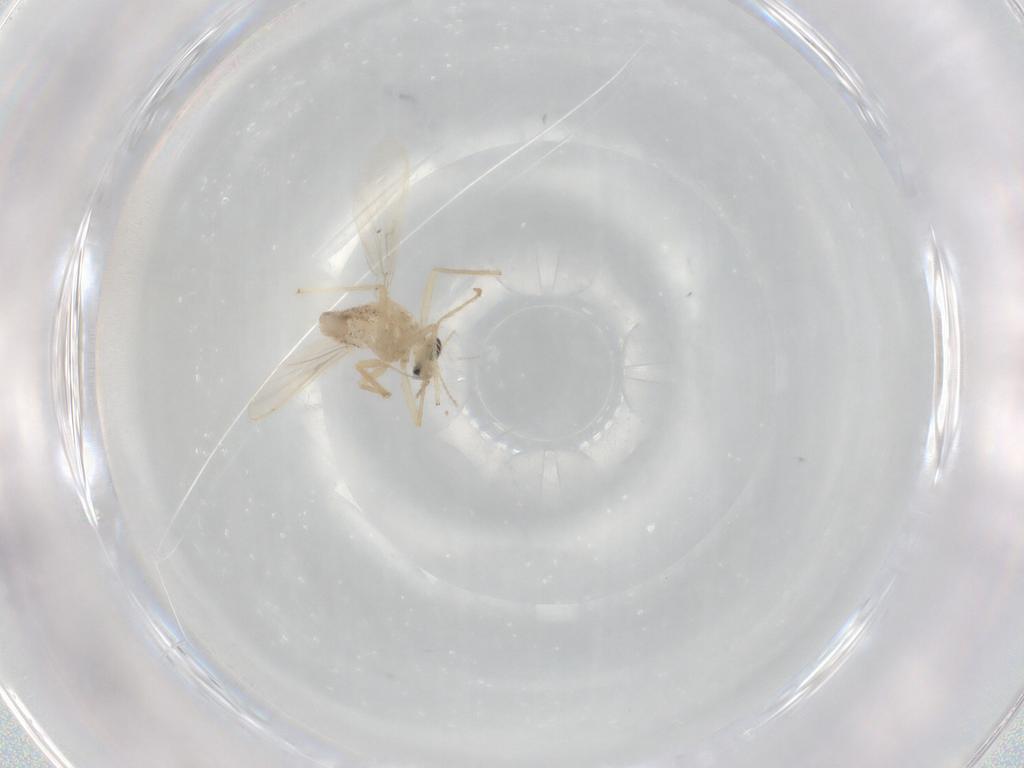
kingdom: Animalia
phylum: Arthropoda
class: Insecta
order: Diptera
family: Chironomidae
